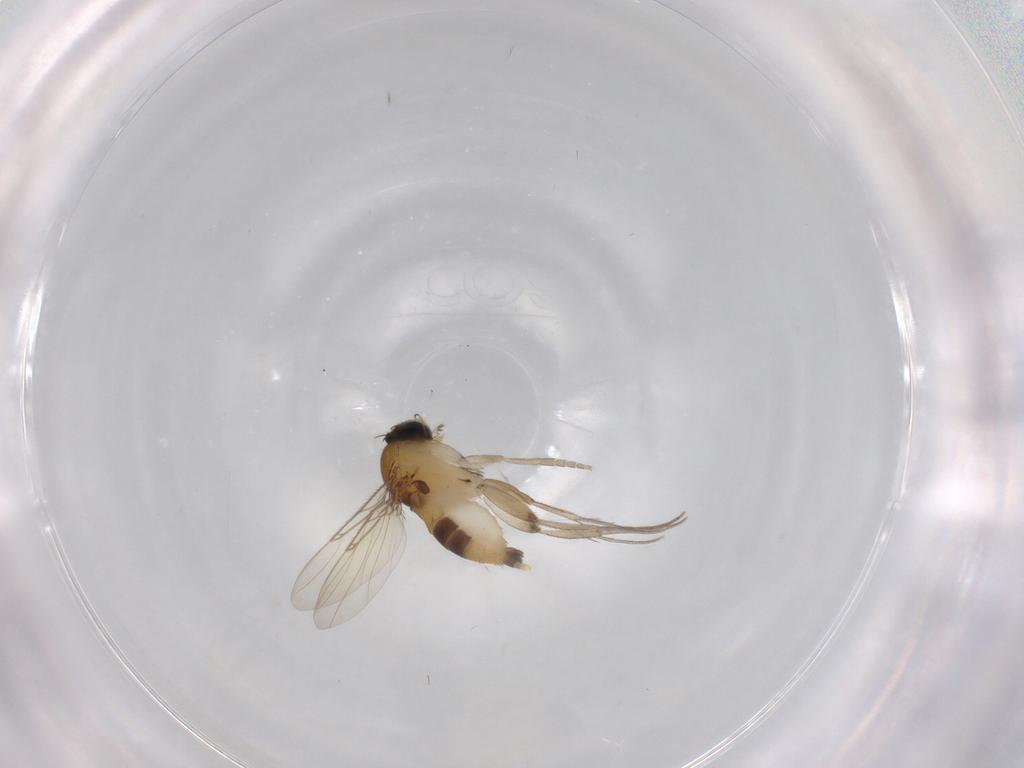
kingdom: Animalia
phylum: Arthropoda
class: Insecta
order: Diptera
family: Phoridae
